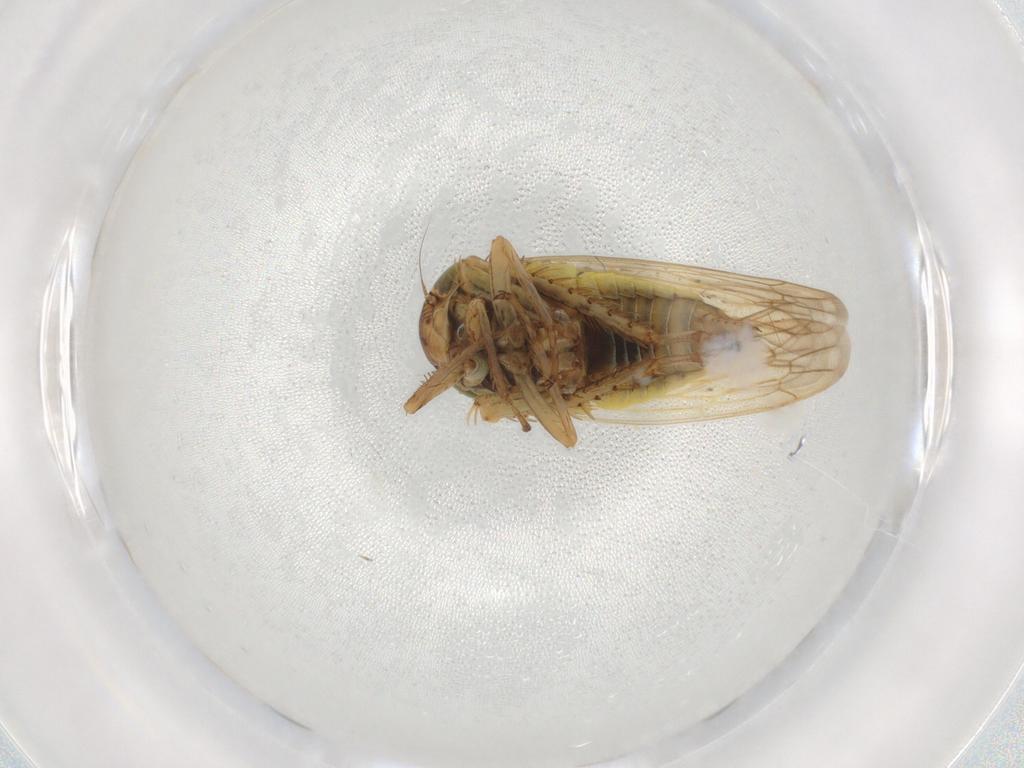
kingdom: Animalia
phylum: Arthropoda
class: Insecta
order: Hemiptera
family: Cicadellidae
